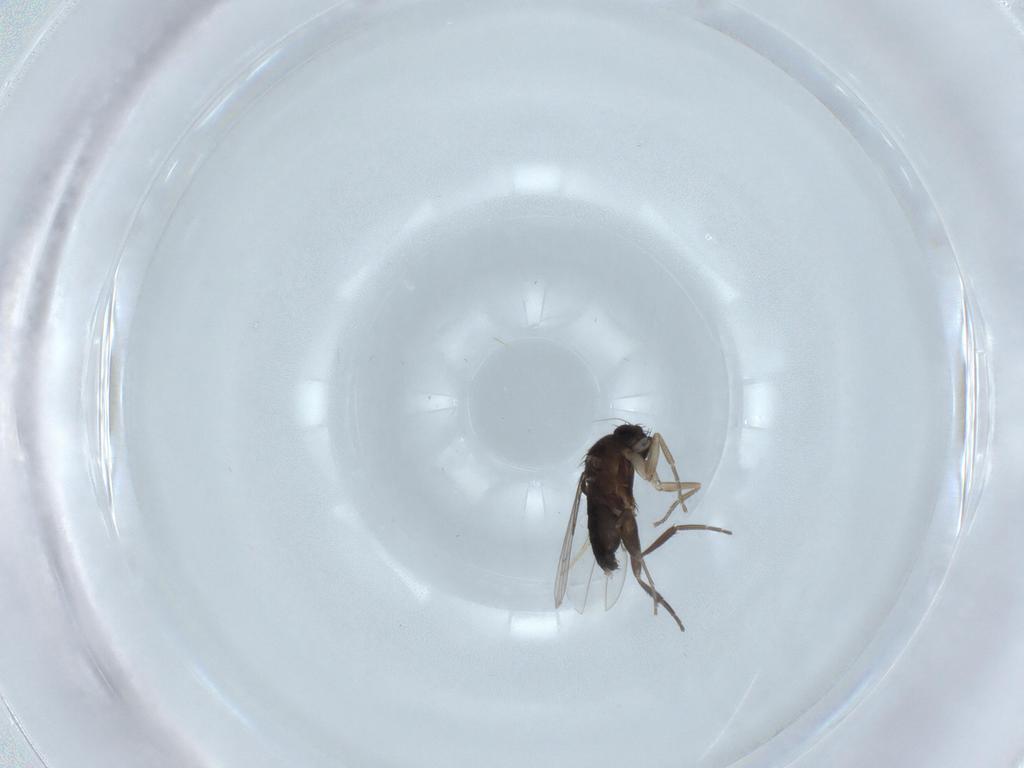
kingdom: Animalia
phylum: Arthropoda
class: Insecta
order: Diptera
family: Phoridae
